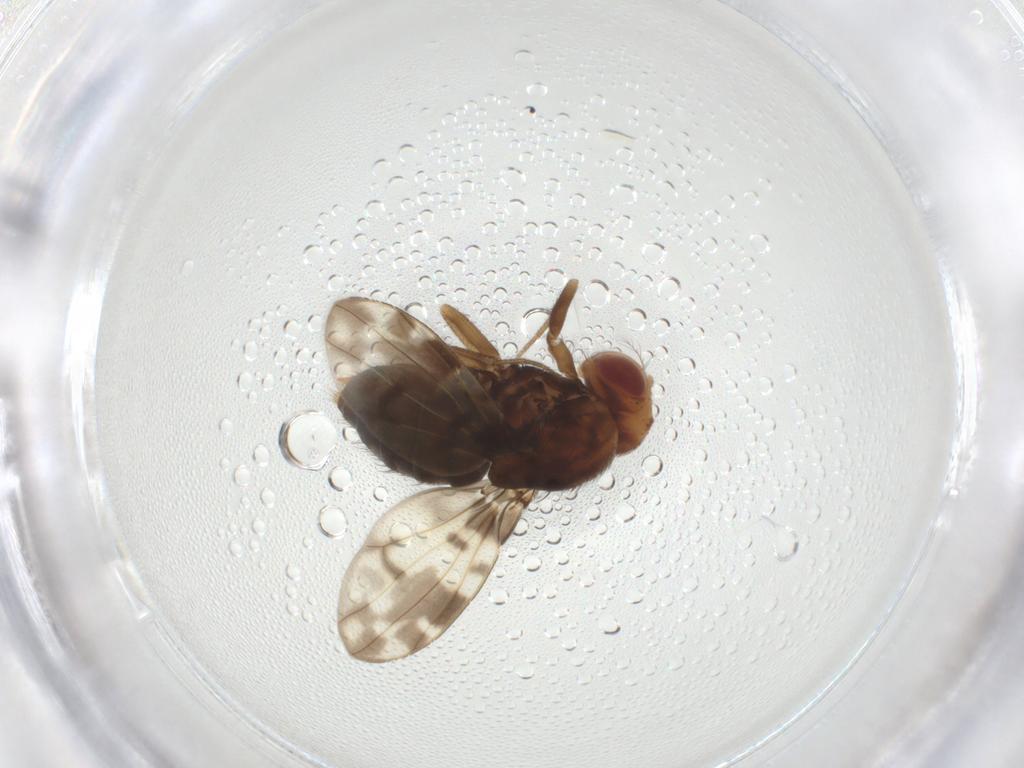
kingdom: Animalia
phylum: Arthropoda
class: Insecta
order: Diptera
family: Drosophilidae
